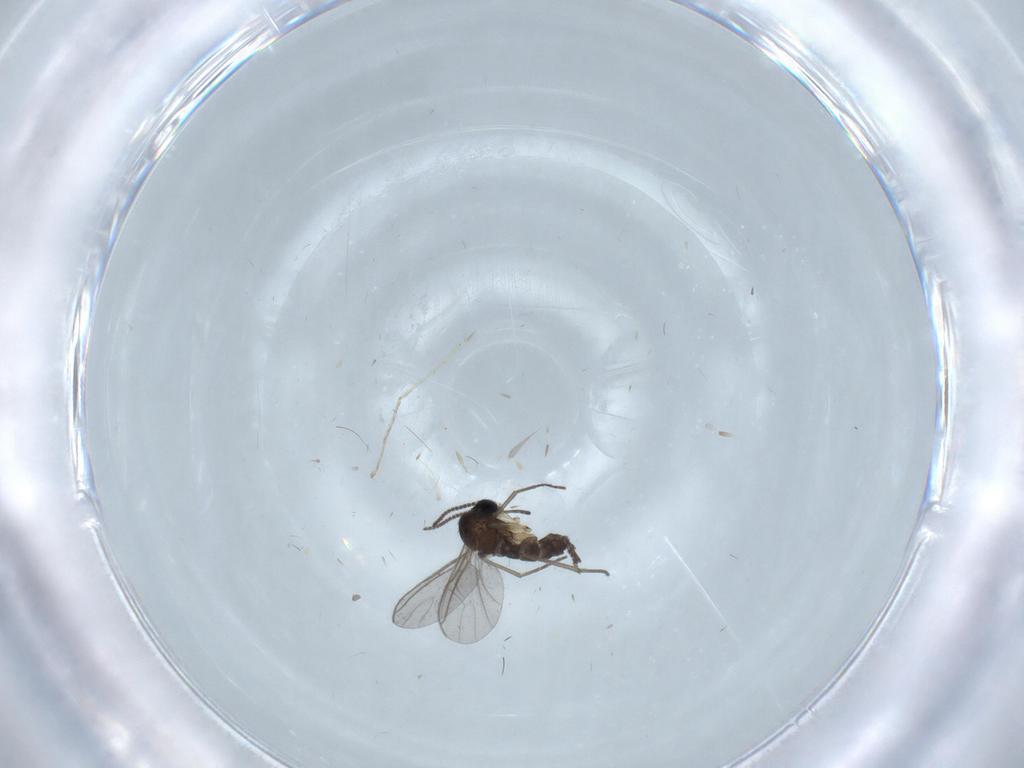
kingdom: Animalia
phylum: Arthropoda
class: Insecta
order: Diptera
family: Sciaridae
